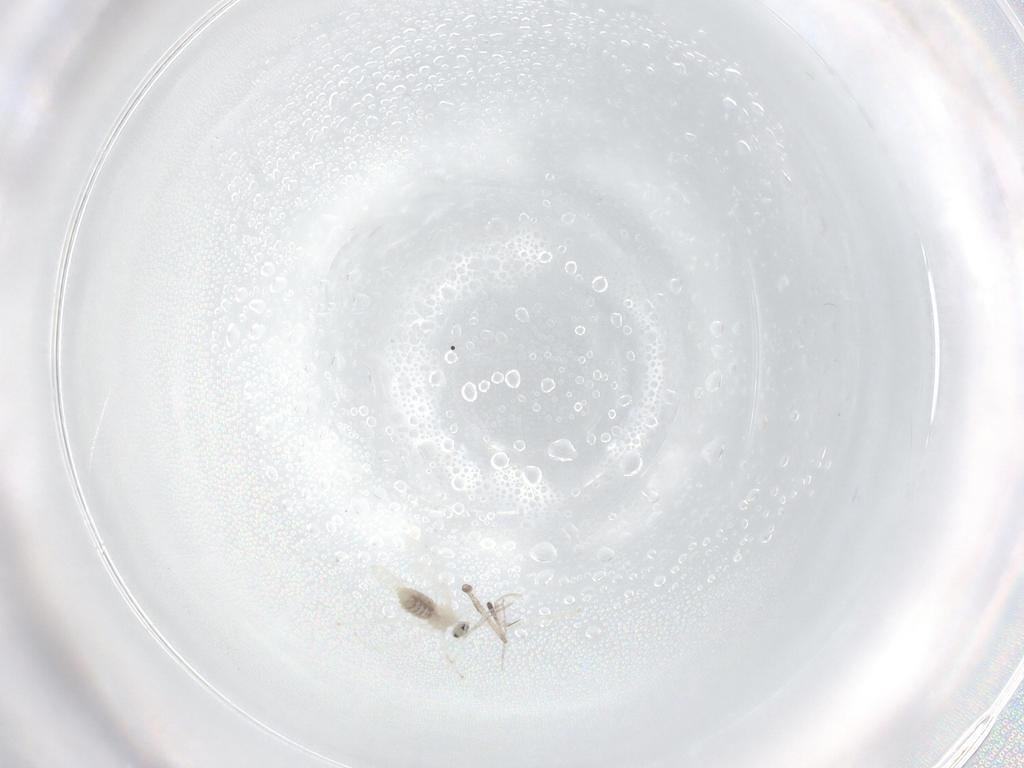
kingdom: Animalia
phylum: Arthropoda
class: Insecta
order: Diptera
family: Cecidomyiidae
